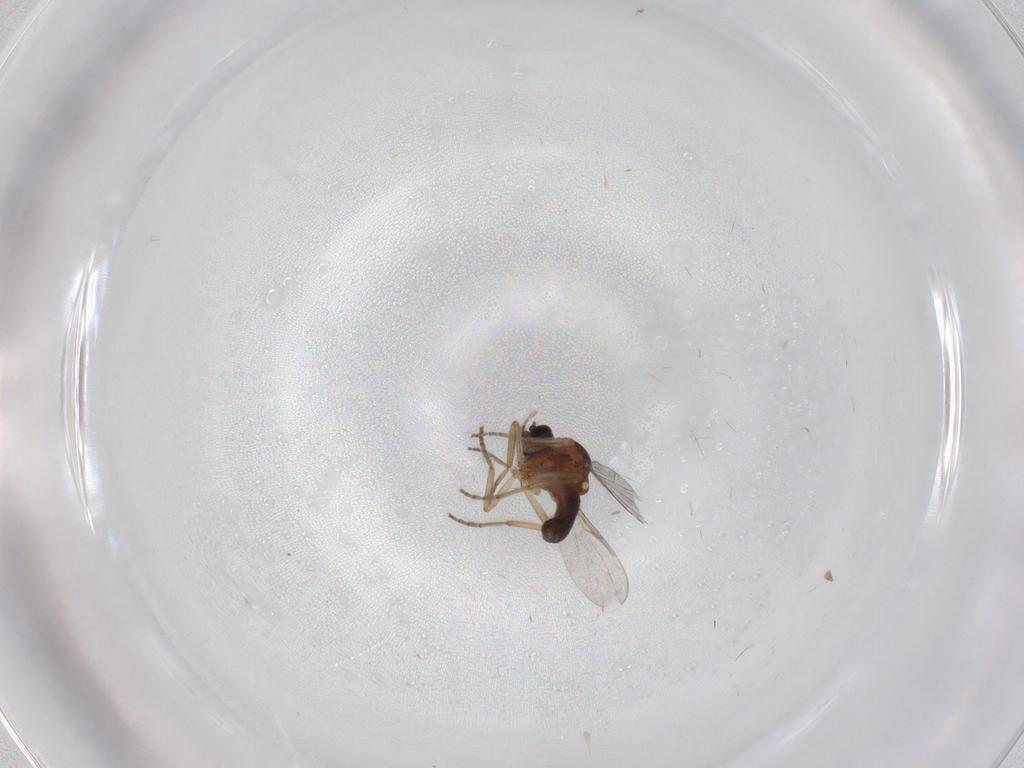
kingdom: Animalia
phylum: Arthropoda
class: Insecta
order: Diptera
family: Ceratopogonidae
